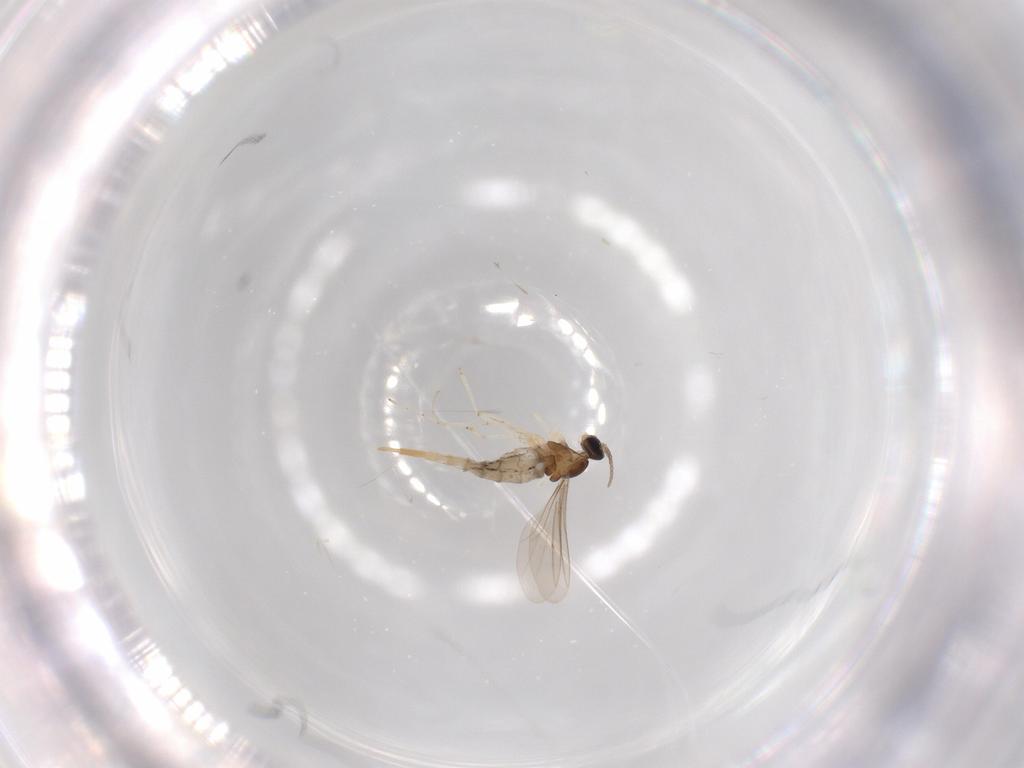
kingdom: Animalia
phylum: Arthropoda
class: Insecta
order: Diptera
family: Cecidomyiidae
